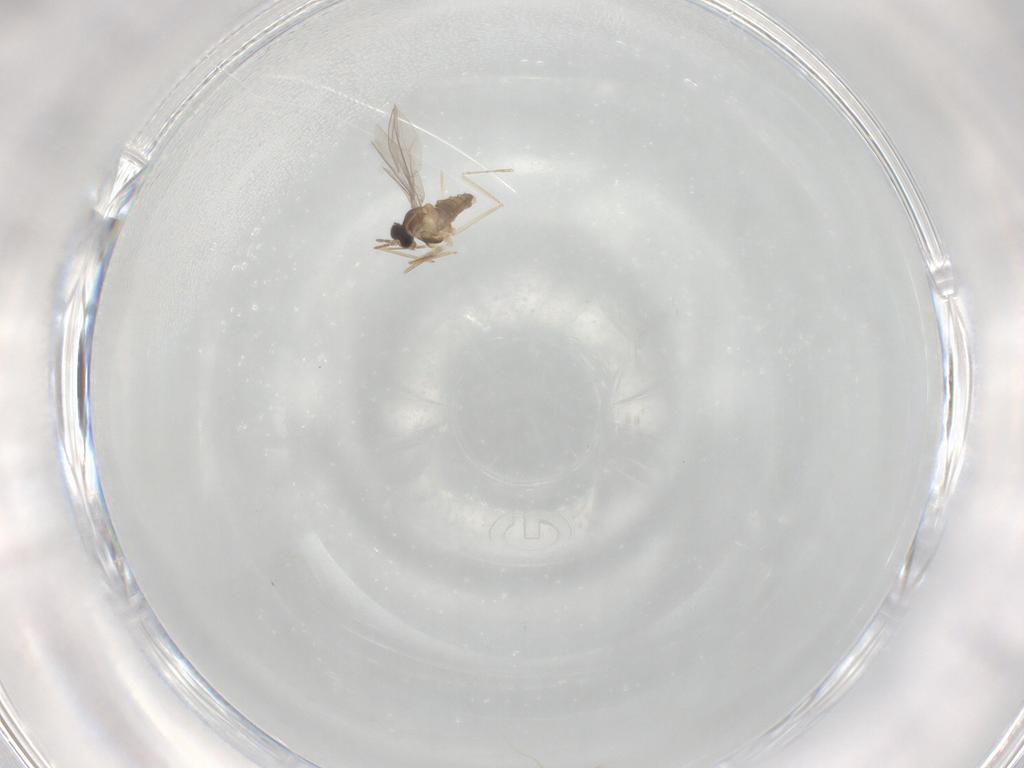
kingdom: Animalia
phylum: Arthropoda
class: Insecta
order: Diptera
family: Cecidomyiidae
